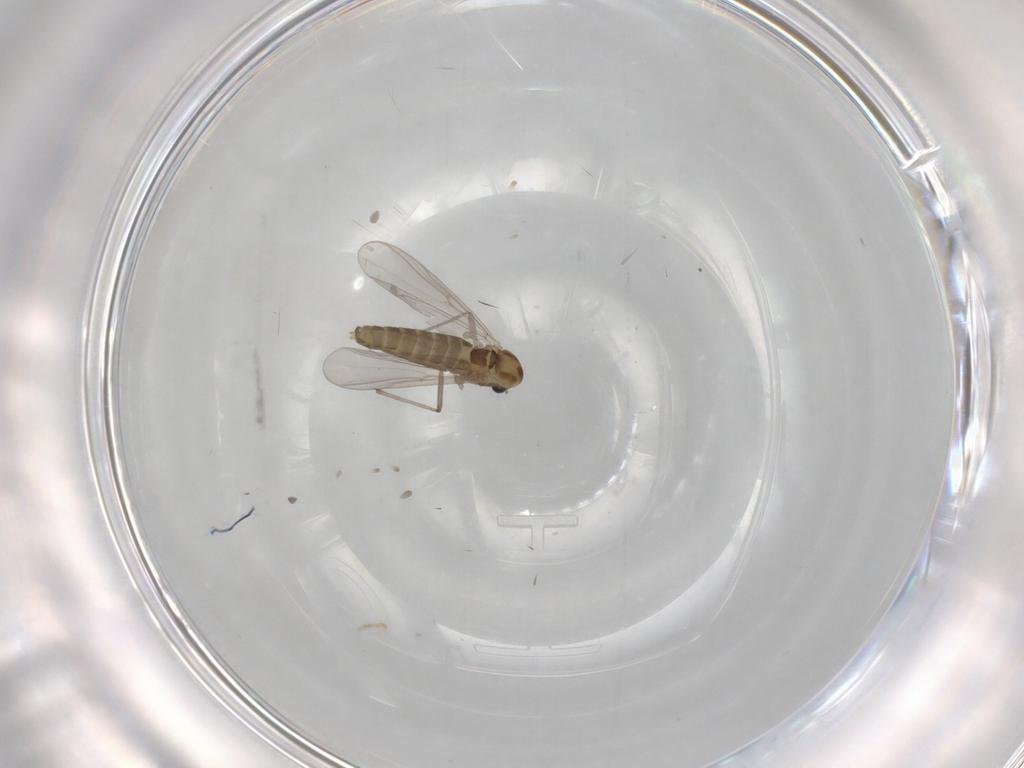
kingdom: Animalia
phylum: Arthropoda
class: Insecta
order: Diptera
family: Chironomidae
